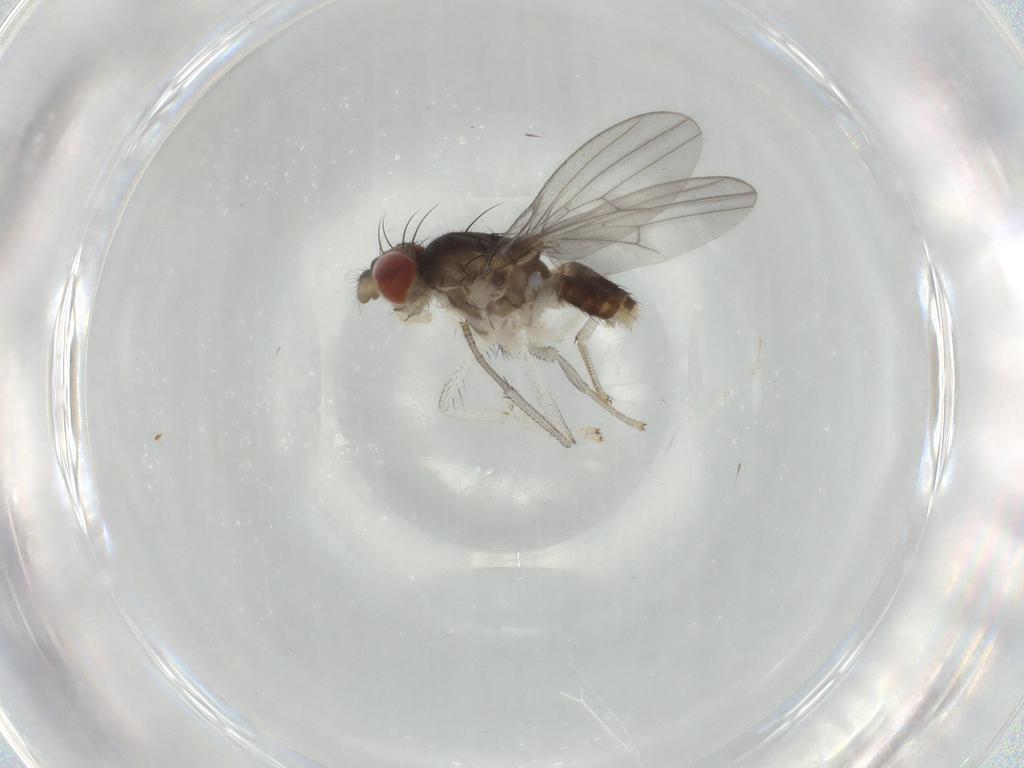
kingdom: Animalia
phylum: Arthropoda
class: Insecta
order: Diptera
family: Cecidomyiidae
